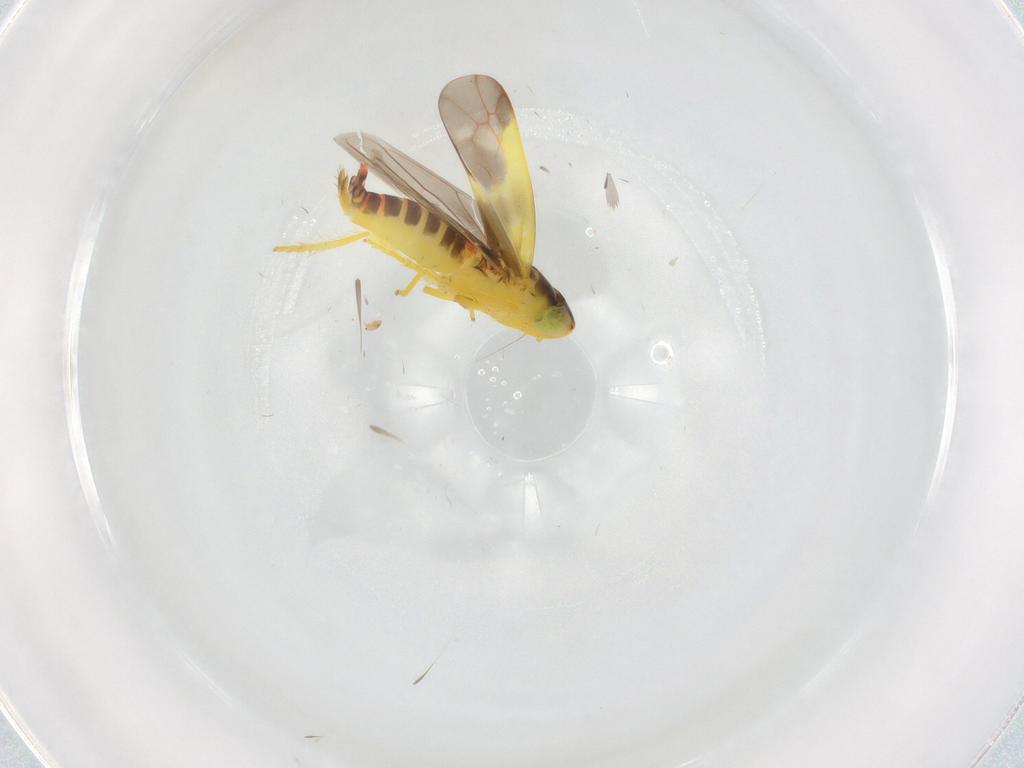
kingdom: Animalia
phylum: Arthropoda
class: Insecta
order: Hemiptera
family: Cicadellidae
